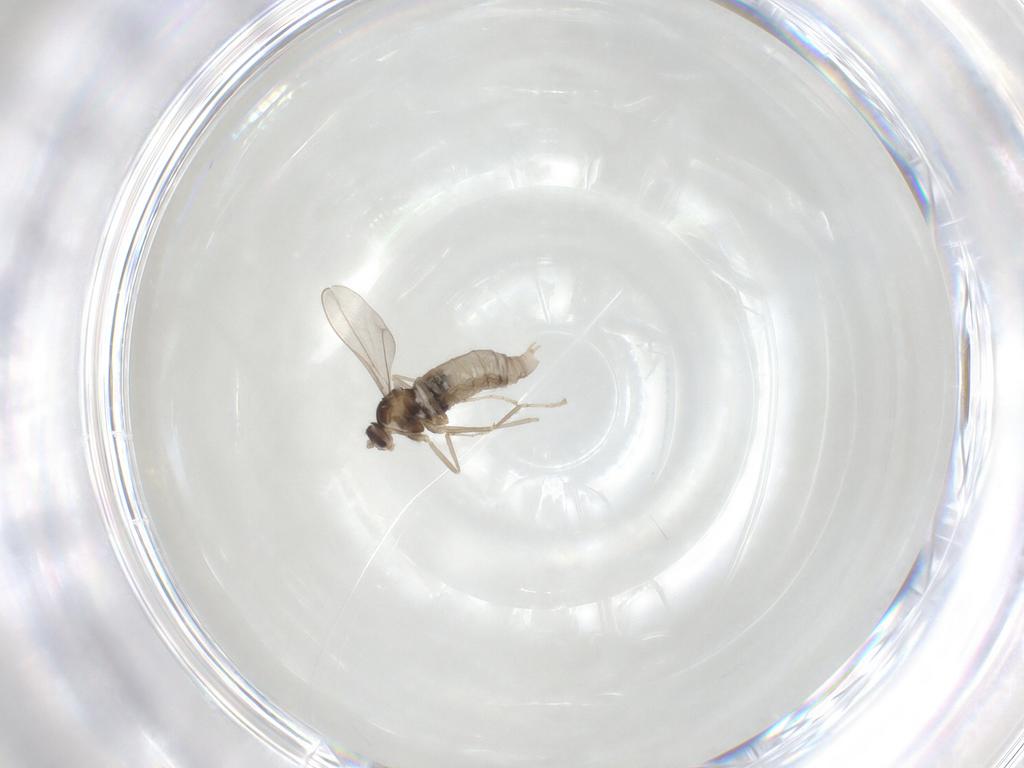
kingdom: Animalia
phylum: Arthropoda
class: Insecta
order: Diptera
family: Cecidomyiidae
